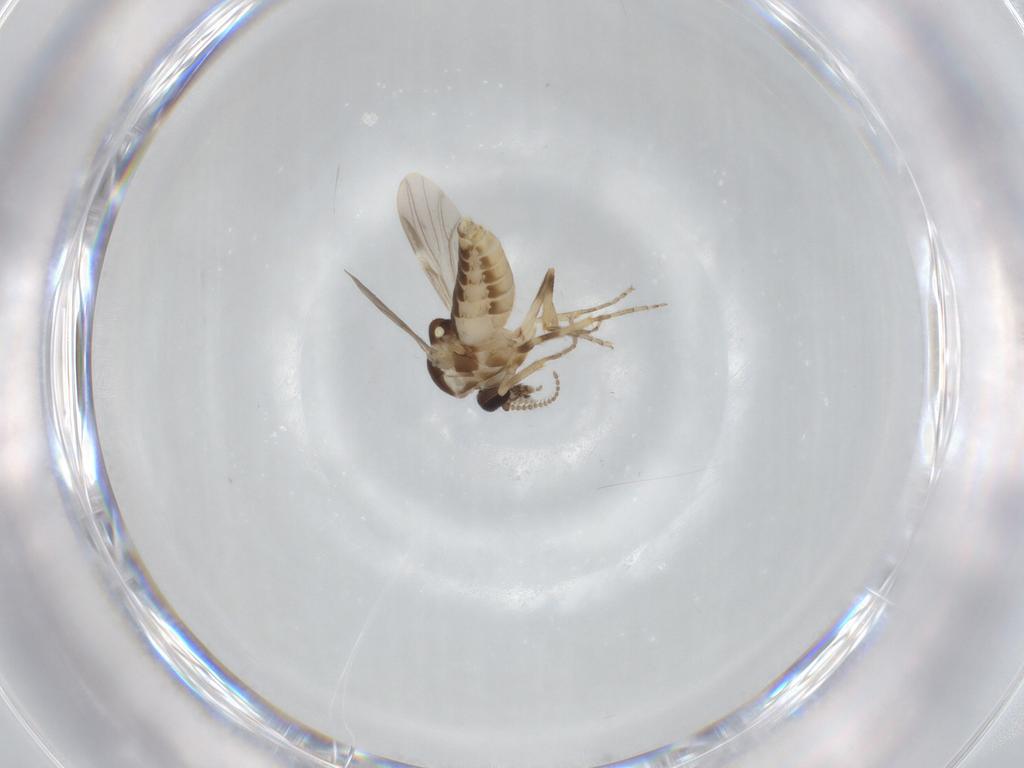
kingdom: Animalia
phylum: Arthropoda
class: Insecta
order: Diptera
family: Ceratopogonidae
